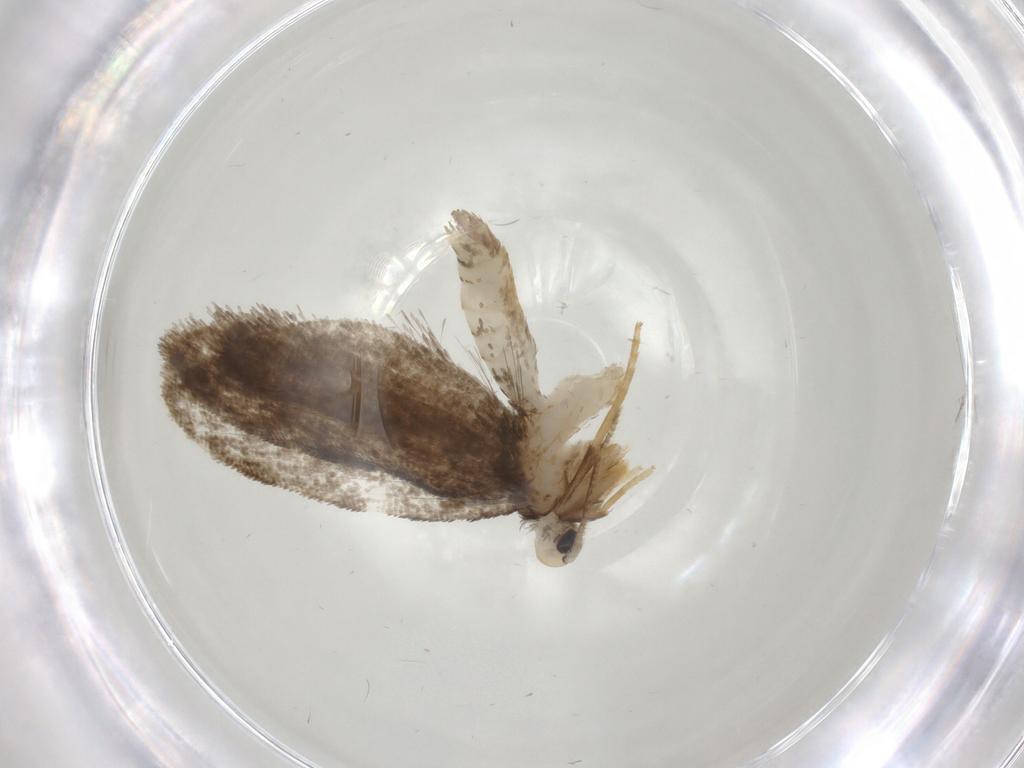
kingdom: Animalia
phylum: Arthropoda
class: Insecta
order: Lepidoptera
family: Psychidae
